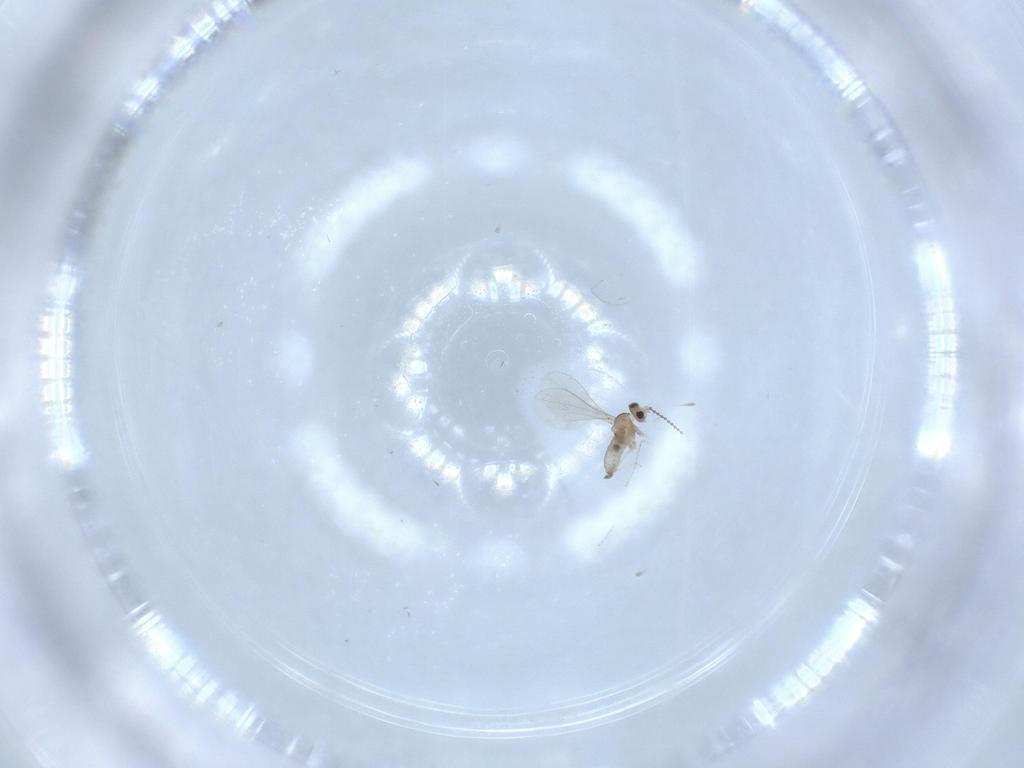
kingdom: Animalia
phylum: Arthropoda
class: Insecta
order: Diptera
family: Cecidomyiidae
